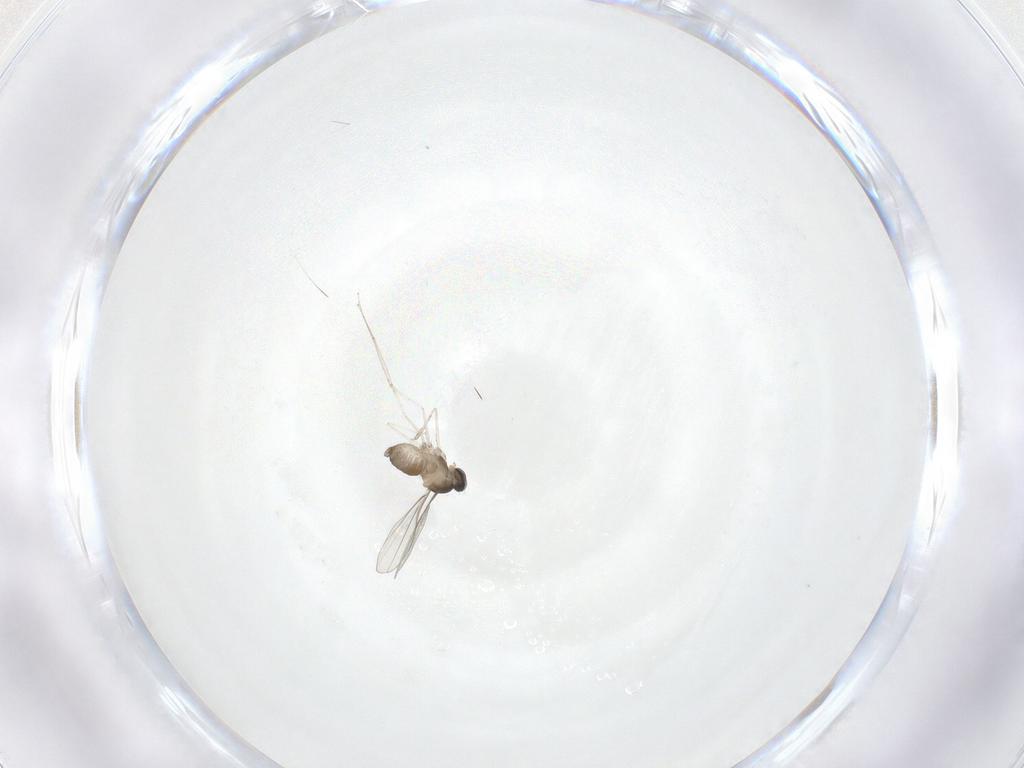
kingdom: Animalia
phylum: Arthropoda
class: Insecta
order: Diptera
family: Cecidomyiidae
